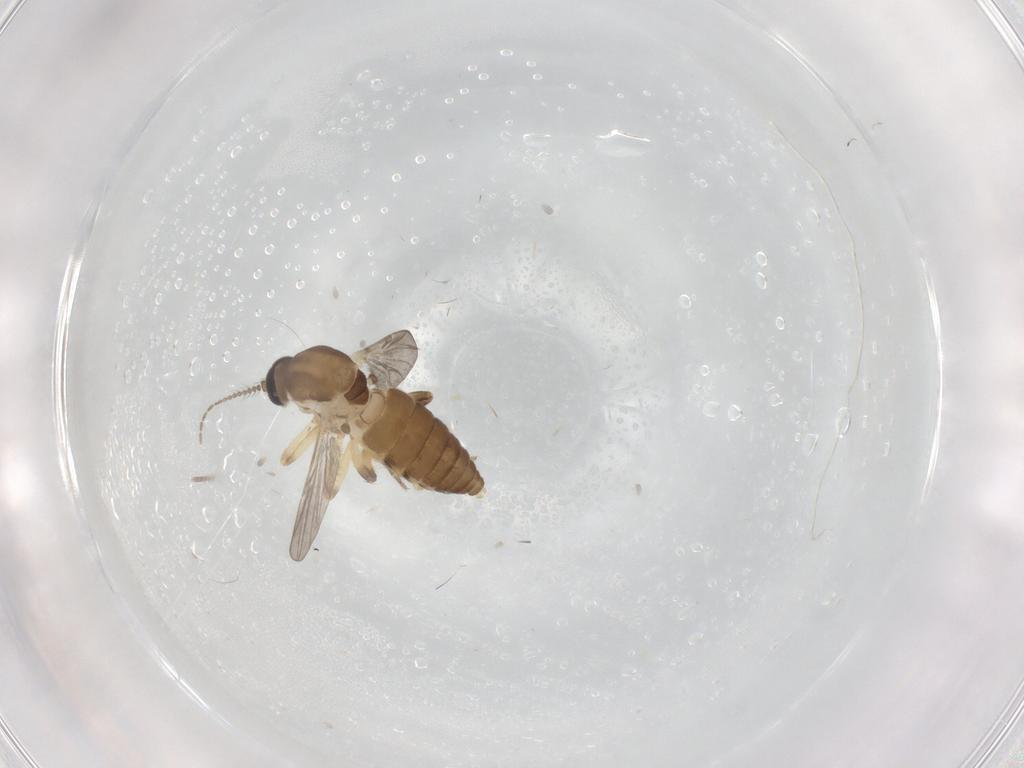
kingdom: Animalia
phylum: Arthropoda
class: Insecta
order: Diptera
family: Ceratopogonidae
